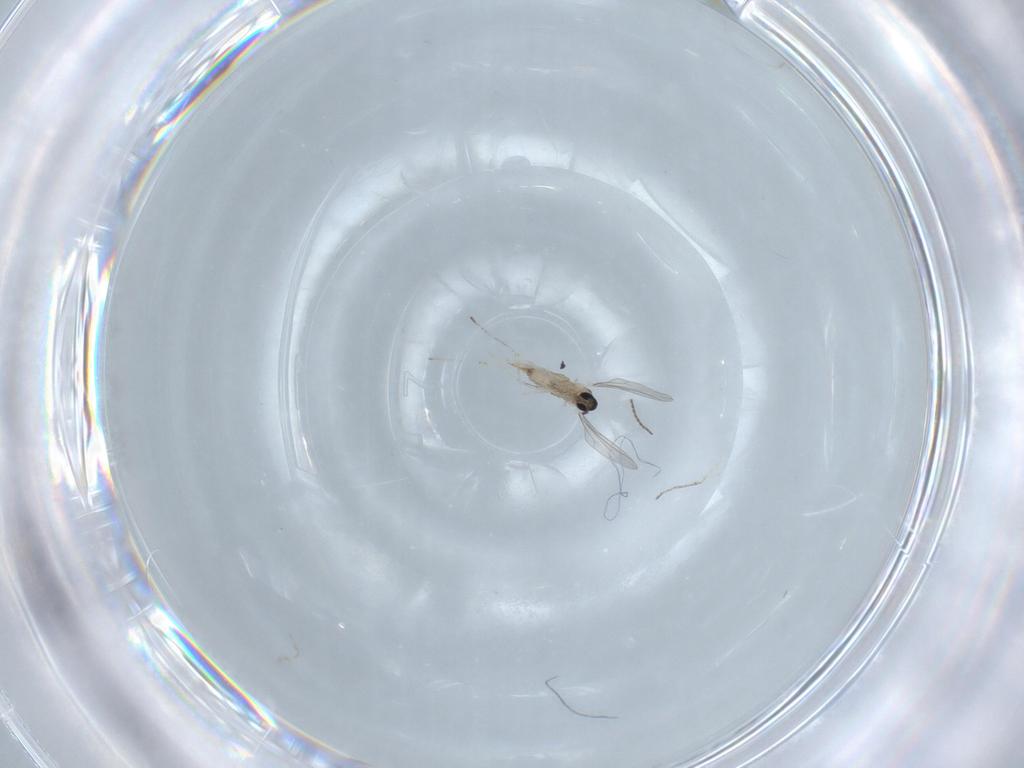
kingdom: Animalia
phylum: Arthropoda
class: Insecta
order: Diptera
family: Cecidomyiidae
